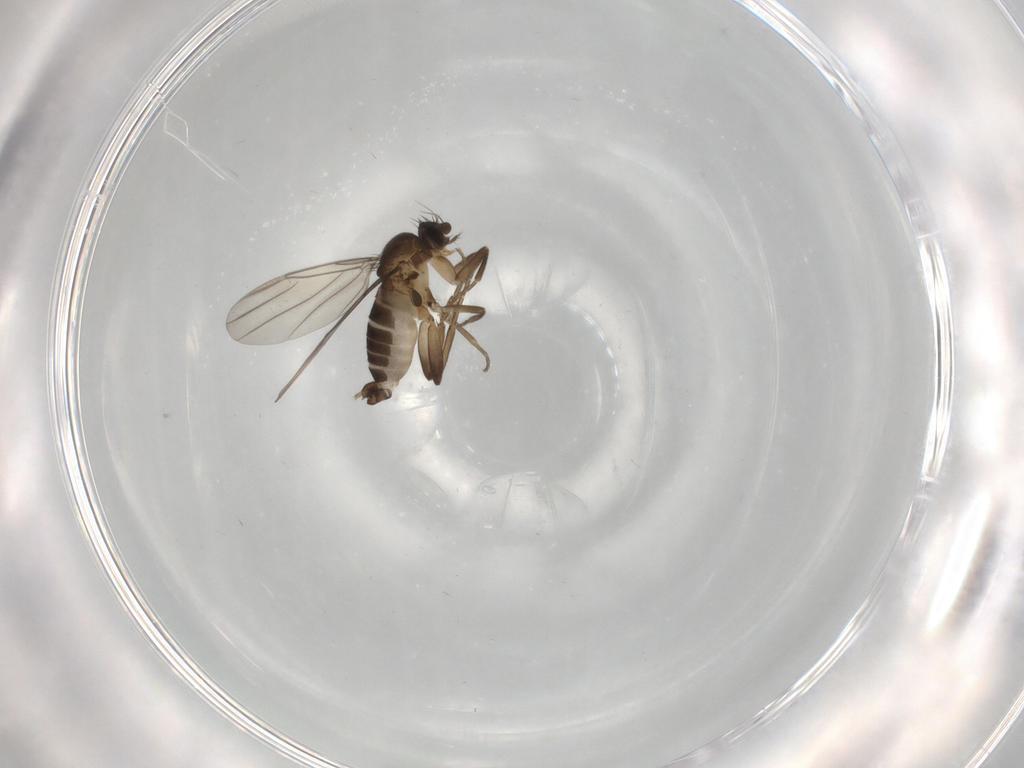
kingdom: Animalia
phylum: Arthropoda
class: Insecta
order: Diptera
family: Phoridae
